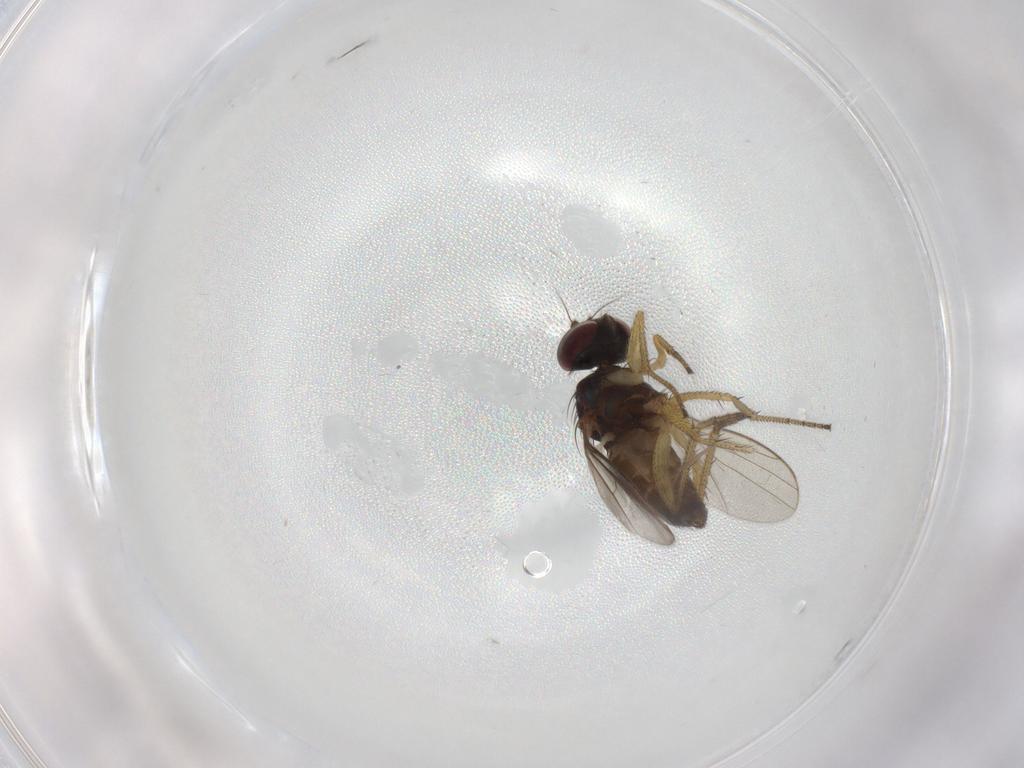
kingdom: Animalia
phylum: Arthropoda
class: Insecta
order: Diptera
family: Dolichopodidae
